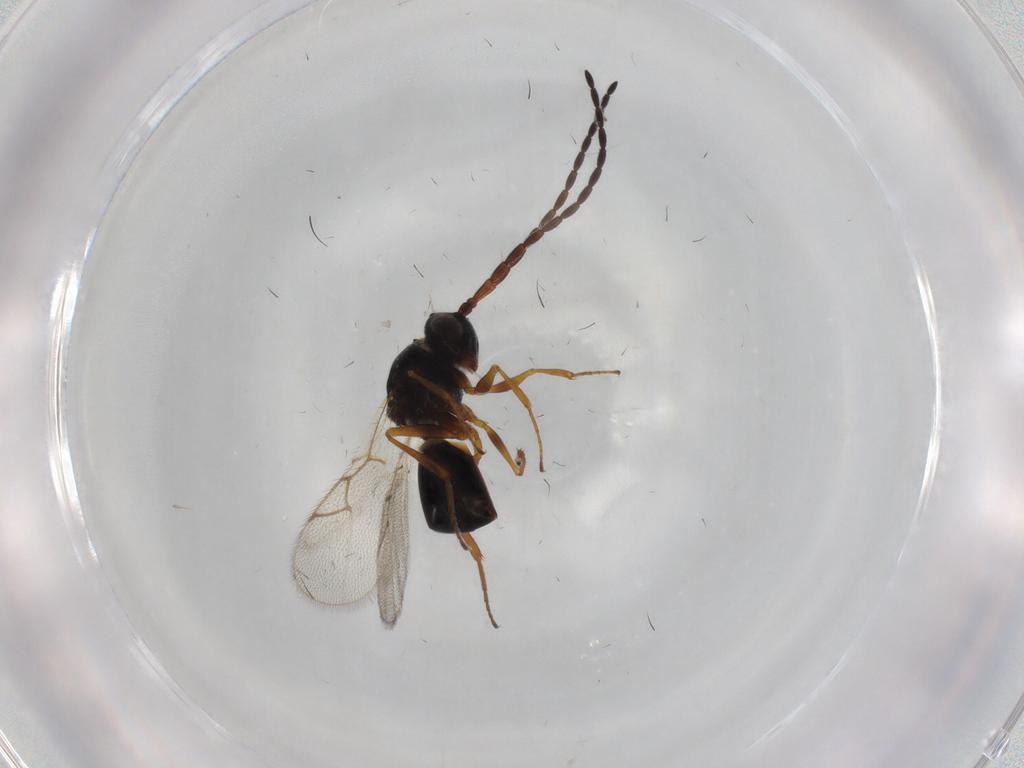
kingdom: Animalia
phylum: Arthropoda
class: Insecta
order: Hymenoptera
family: Figitidae
